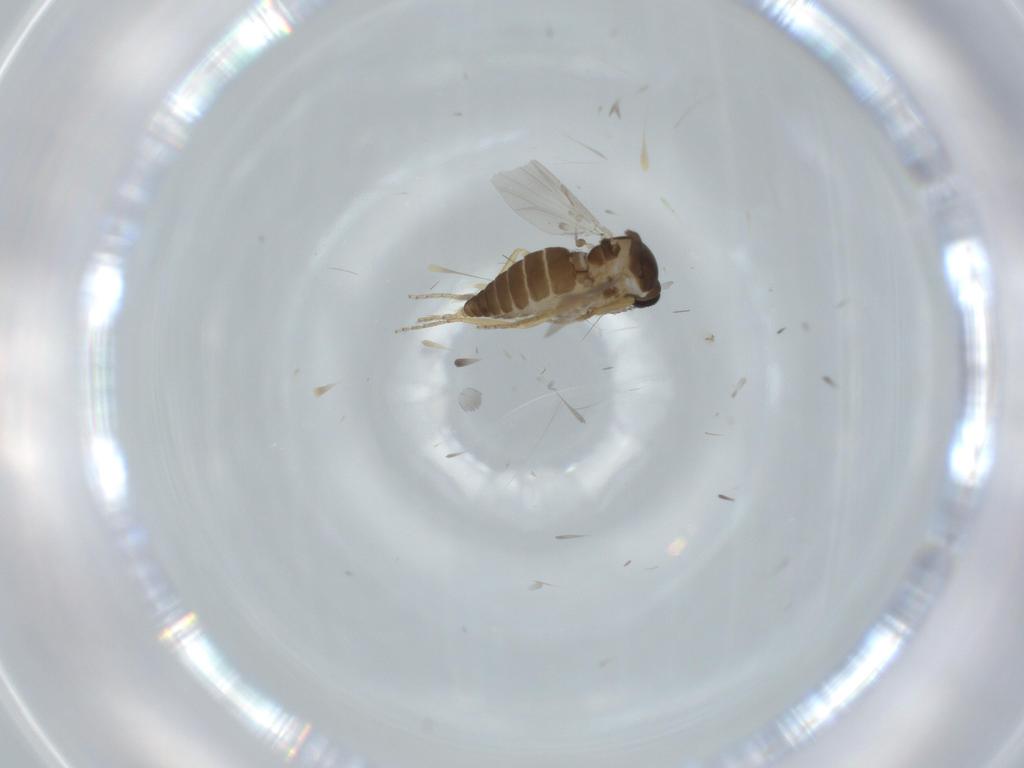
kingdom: Animalia
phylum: Arthropoda
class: Insecta
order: Diptera
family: Ceratopogonidae
